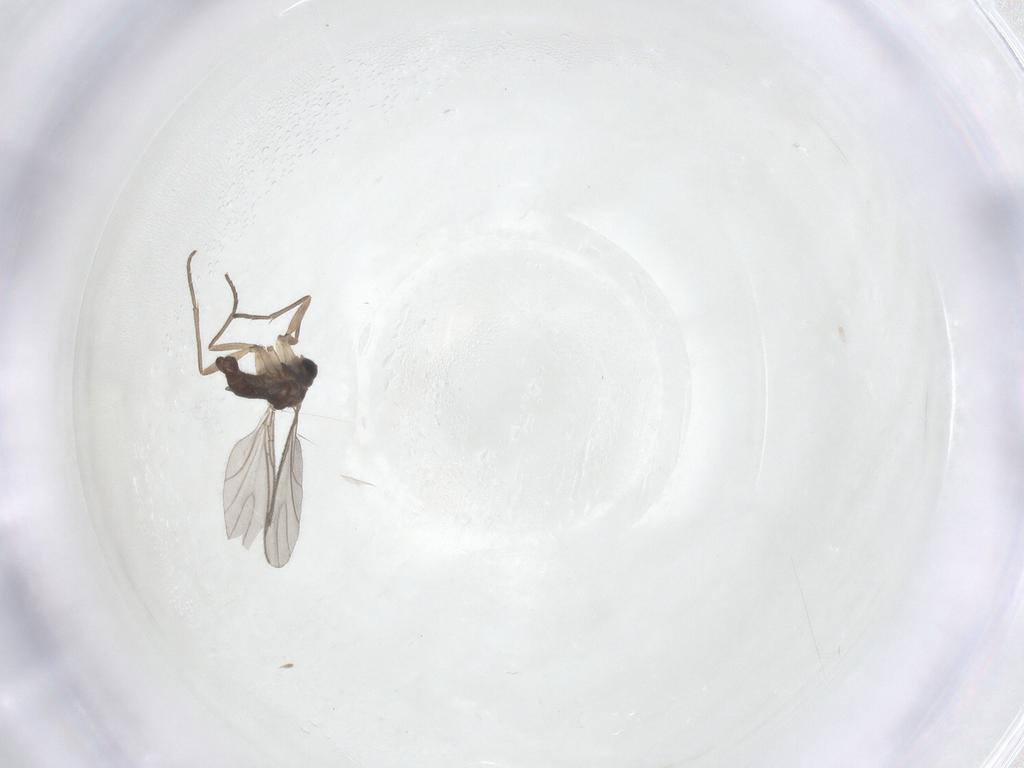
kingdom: Animalia
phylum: Arthropoda
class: Insecta
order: Diptera
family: Sciaridae
